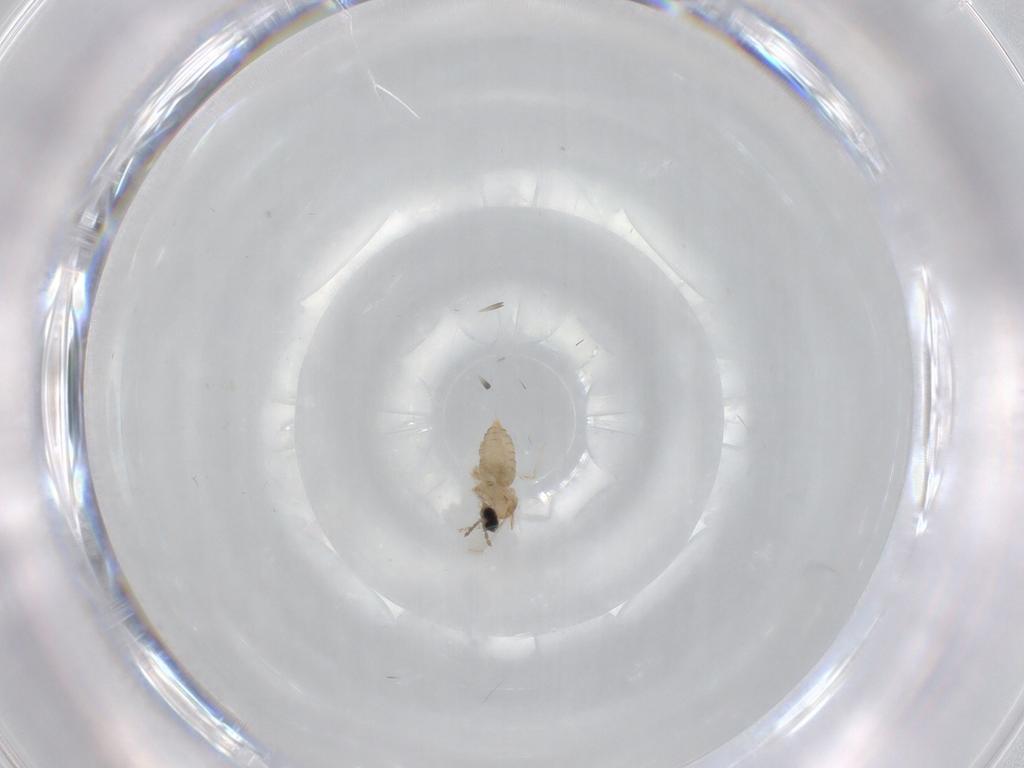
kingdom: Animalia
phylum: Arthropoda
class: Insecta
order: Diptera
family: Cecidomyiidae
